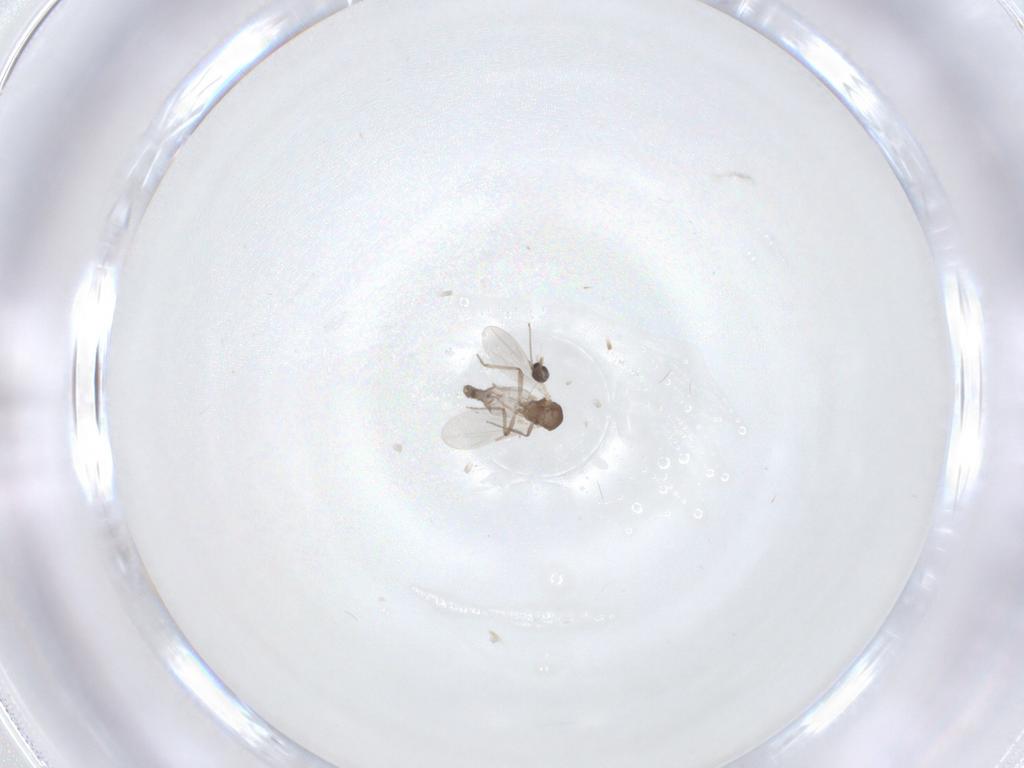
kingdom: Animalia
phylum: Arthropoda
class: Insecta
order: Diptera
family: Ceratopogonidae
